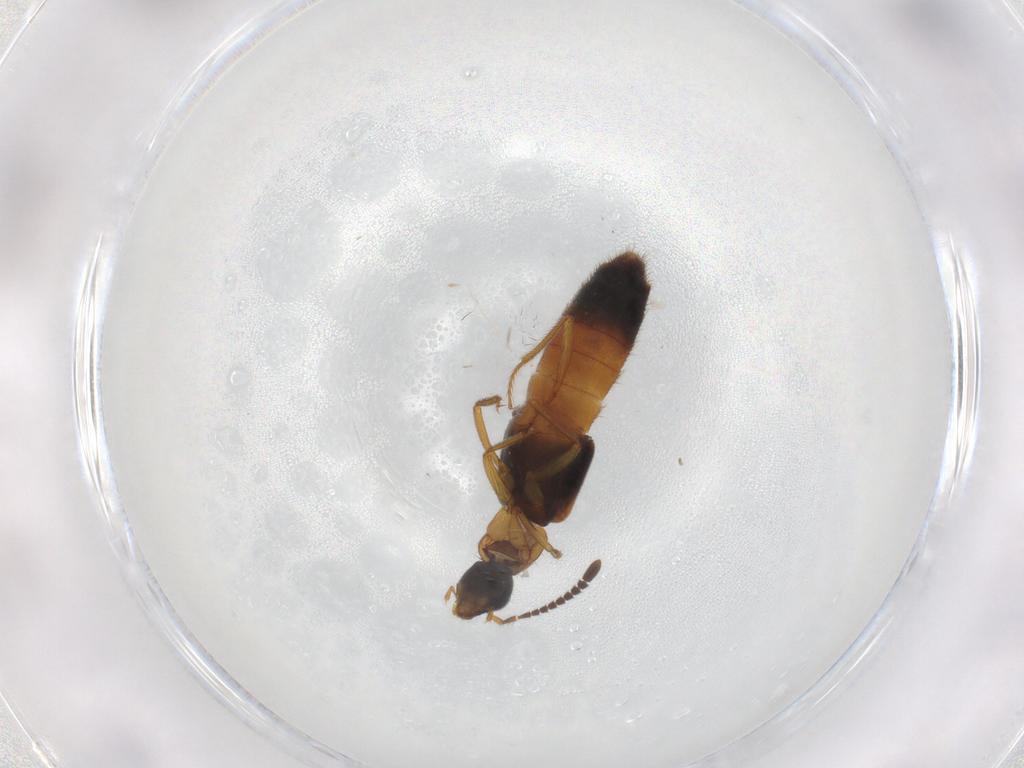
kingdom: Animalia
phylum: Arthropoda
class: Insecta
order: Coleoptera
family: Staphylinidae
